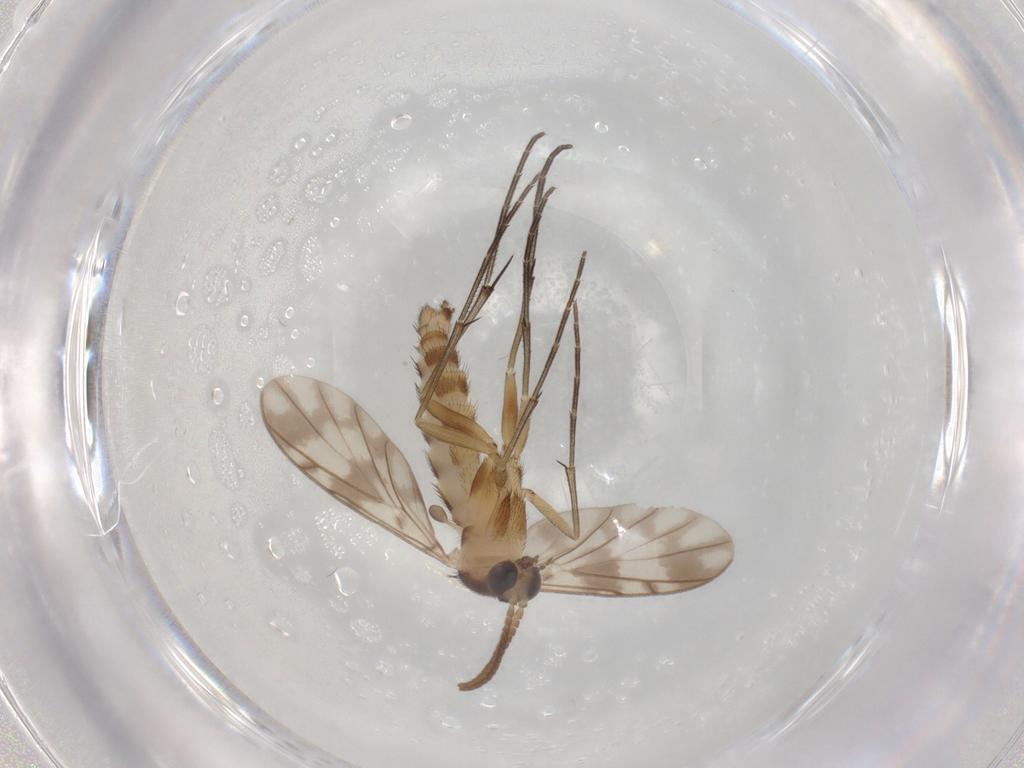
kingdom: Animalia
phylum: Arthropoda
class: Insecta
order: Diptera
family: Keroplatidae
